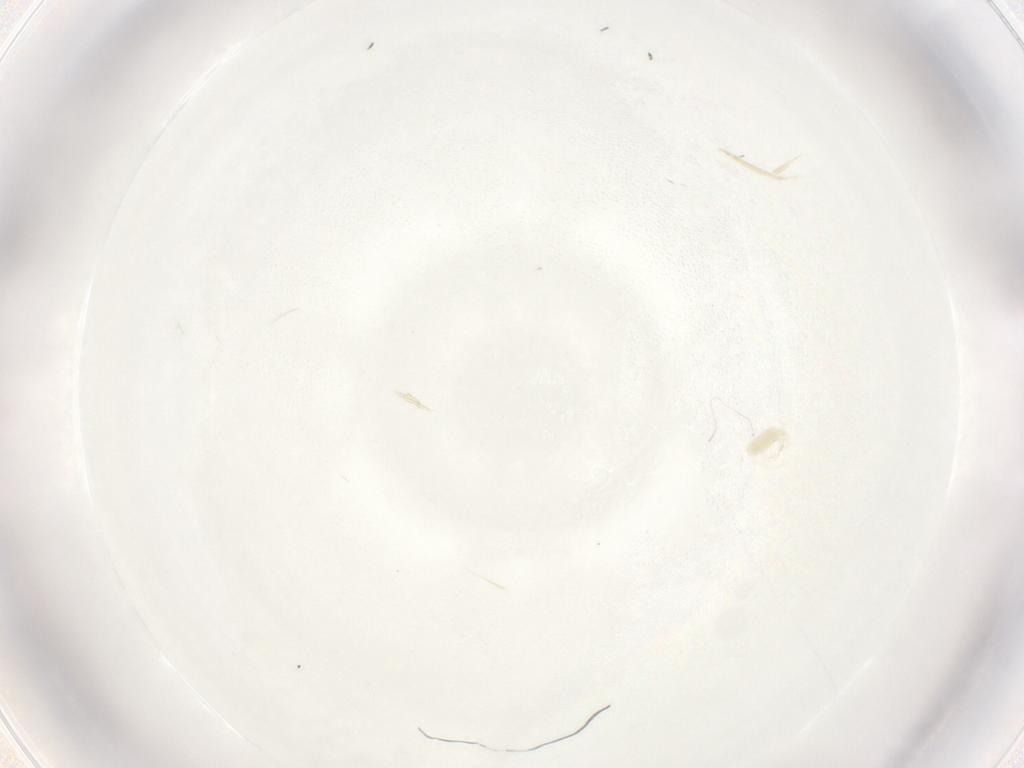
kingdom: Animalia
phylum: Arthropoda
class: Arachnida
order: Trombidiformes
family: Tetranychidae
